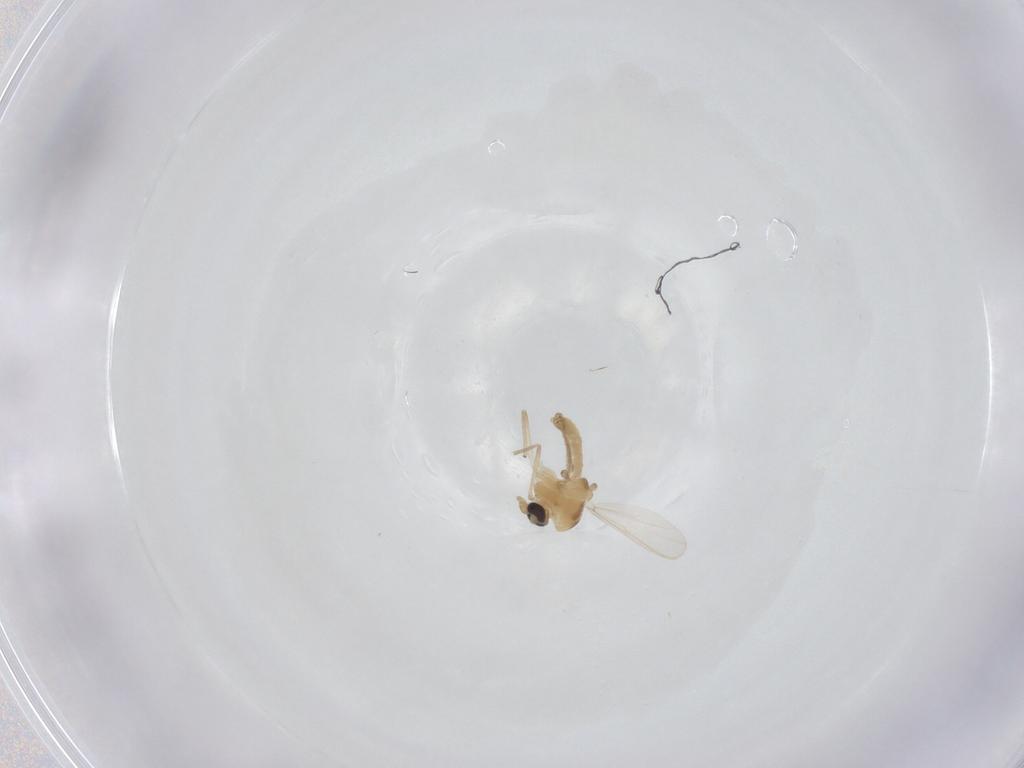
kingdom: Animalia
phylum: Arthropoda
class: Insecta
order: Diptera
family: Chironomidae
